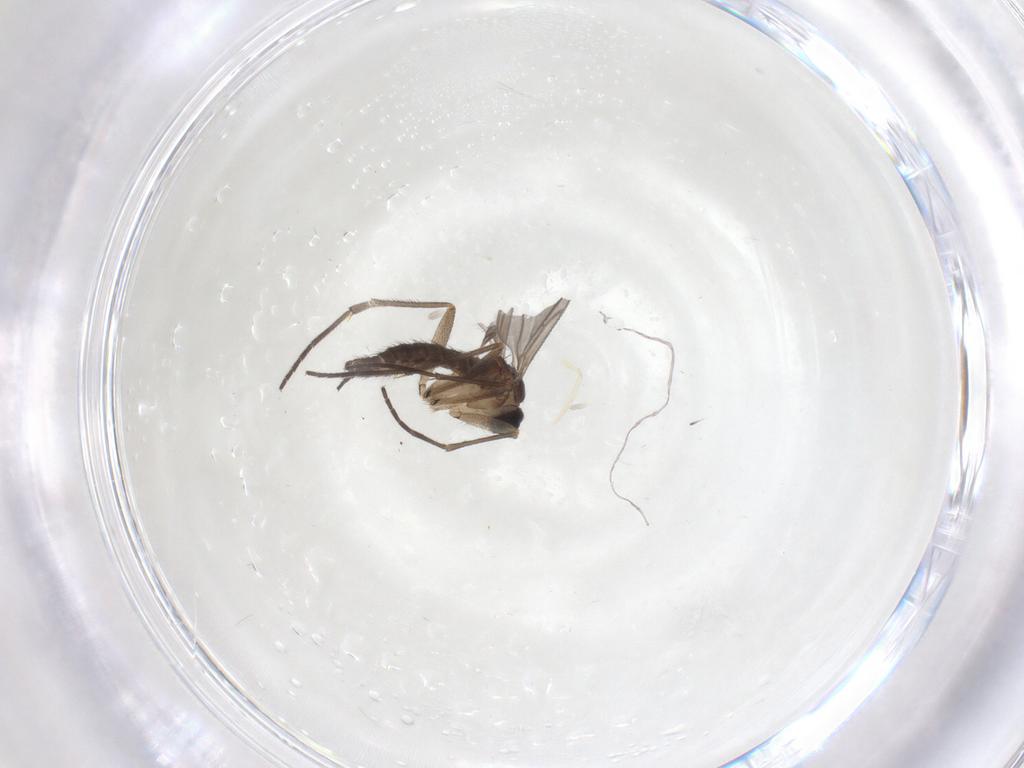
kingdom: Animalia
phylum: Arthropoda
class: Insecta
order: Diptera
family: Sciaridae
